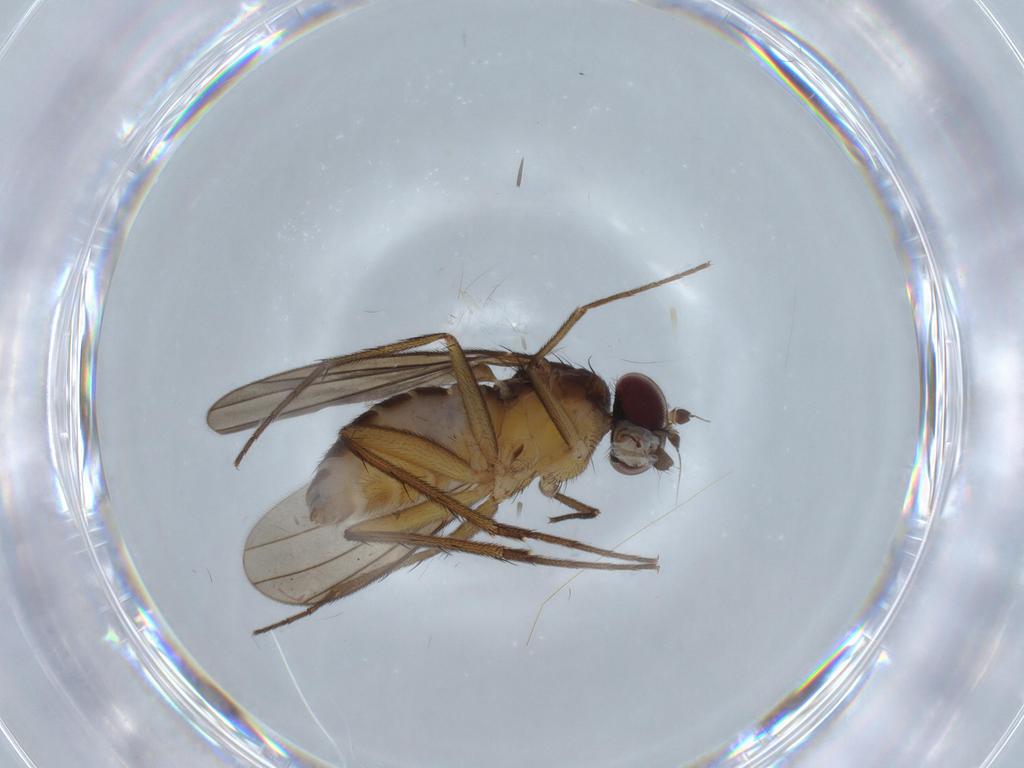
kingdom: Animalia
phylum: Arthropoda
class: Insecta
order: Diptera
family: Dolichopodidae
